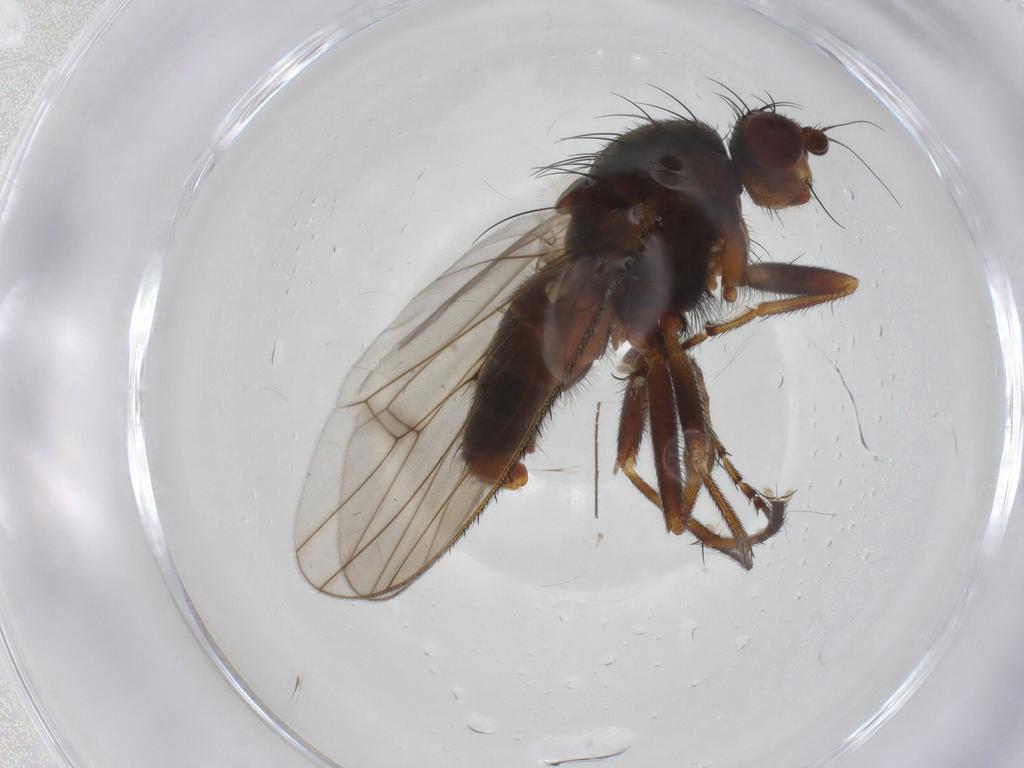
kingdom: Animalia
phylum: Arthropoda
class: Insecta
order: Diptera
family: Heleomyzidae
